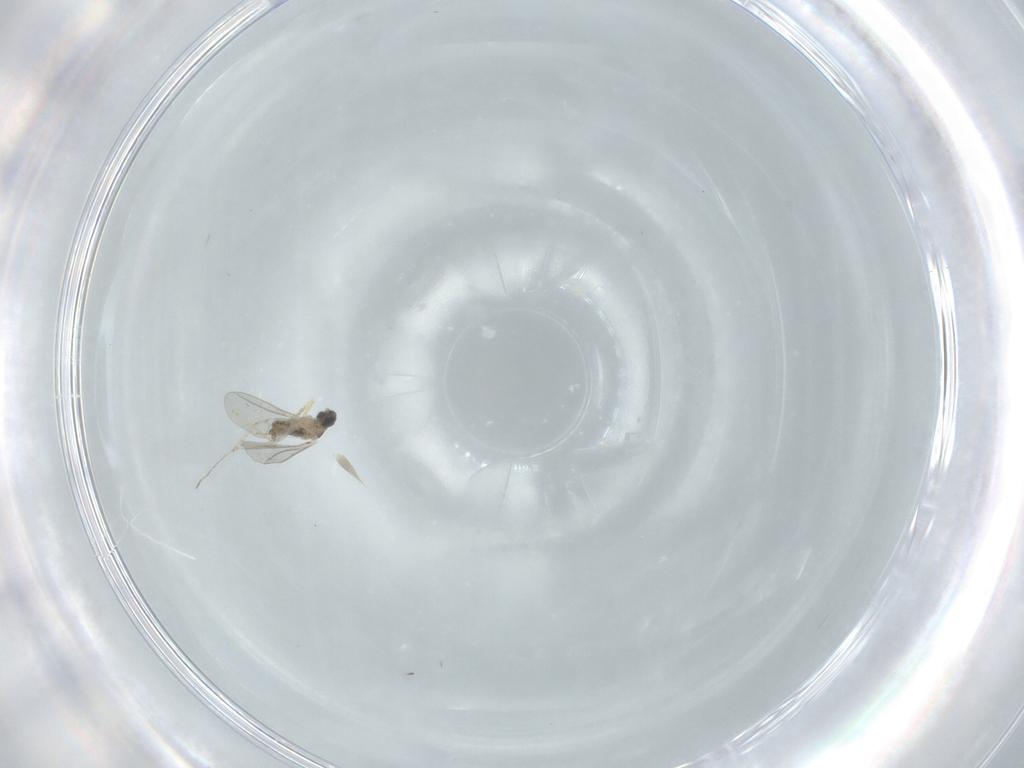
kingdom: Animalia
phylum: Arthropoda
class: Insecta
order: Diptera
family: Cecidomyiidae
